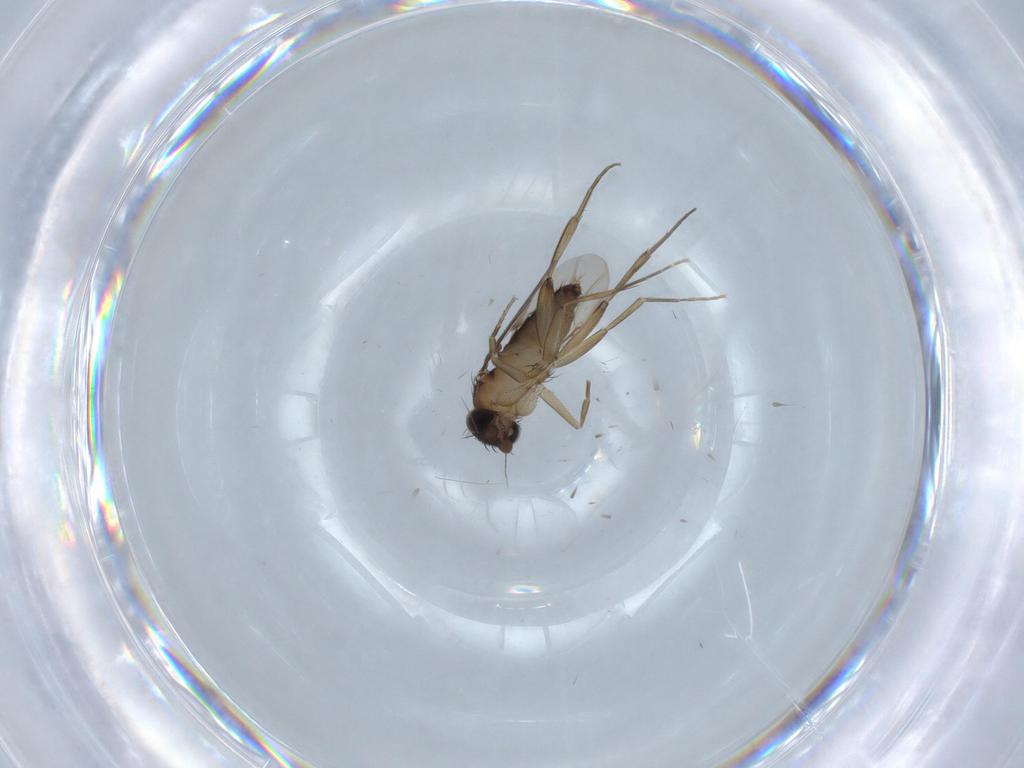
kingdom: Animalia
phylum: Arthropoda
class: Insecta
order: Diptera
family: Phoridae
